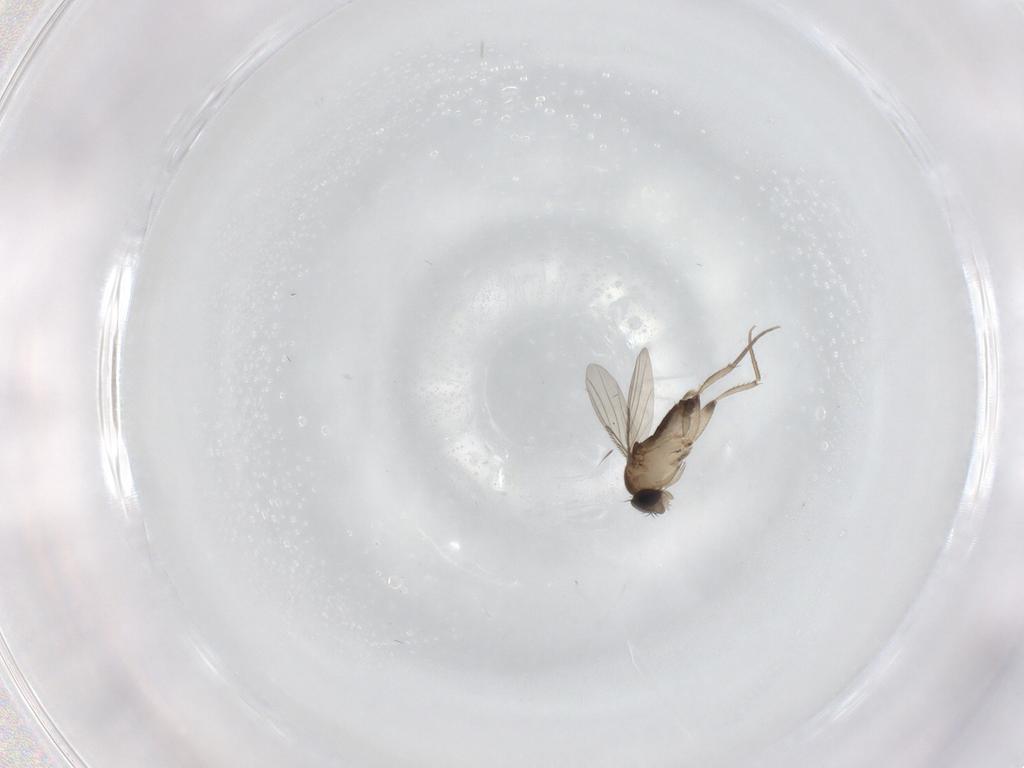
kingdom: Animalia
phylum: Arthropoda
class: Insecta
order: Diptera
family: Phoridae
